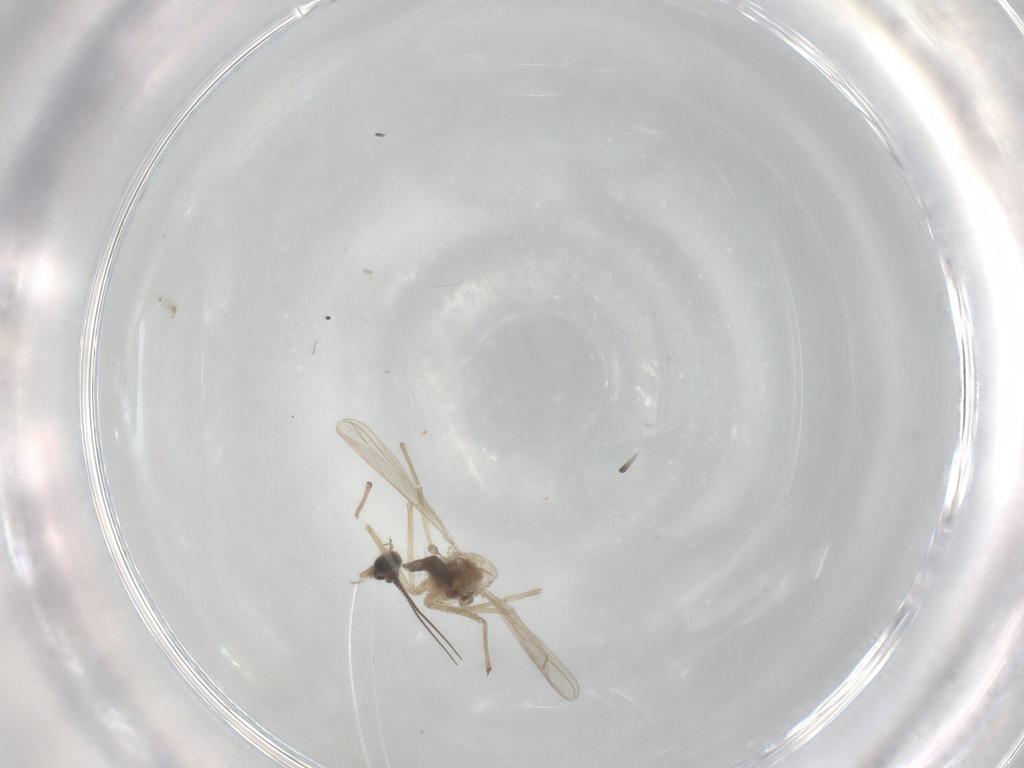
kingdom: Animalia
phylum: Arthropoda
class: Insecta
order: Diptera
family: Chironomidae
